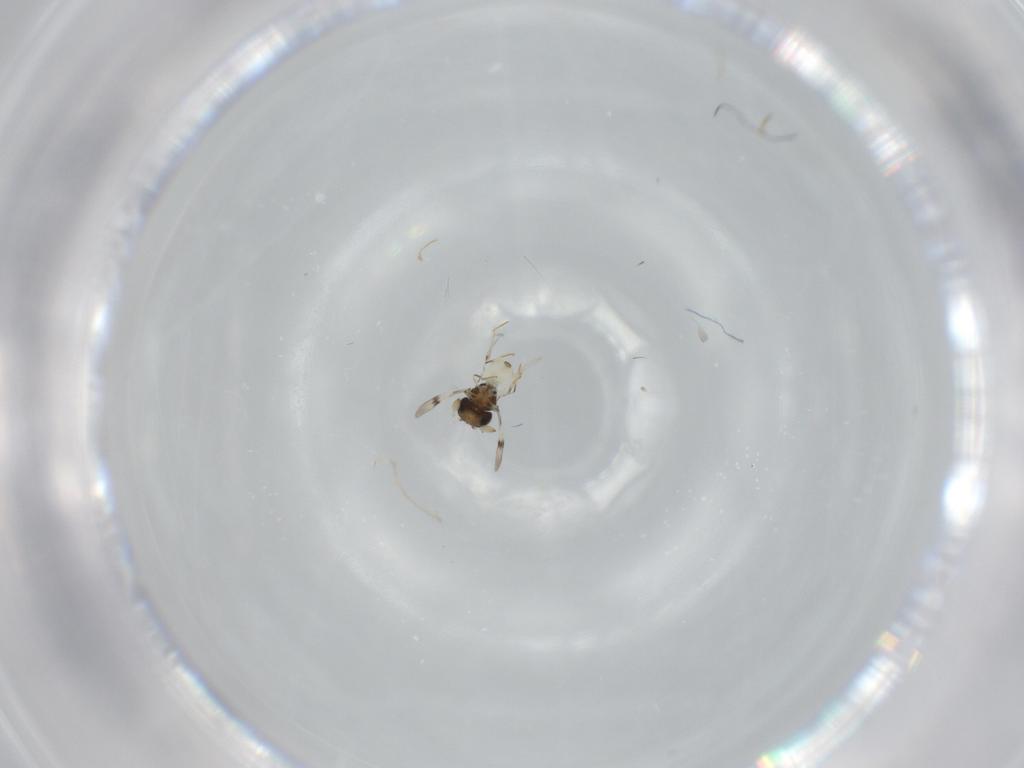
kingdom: Animalia
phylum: Arthropoda
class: Insecta
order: Hymenoptera
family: Scelionidae
